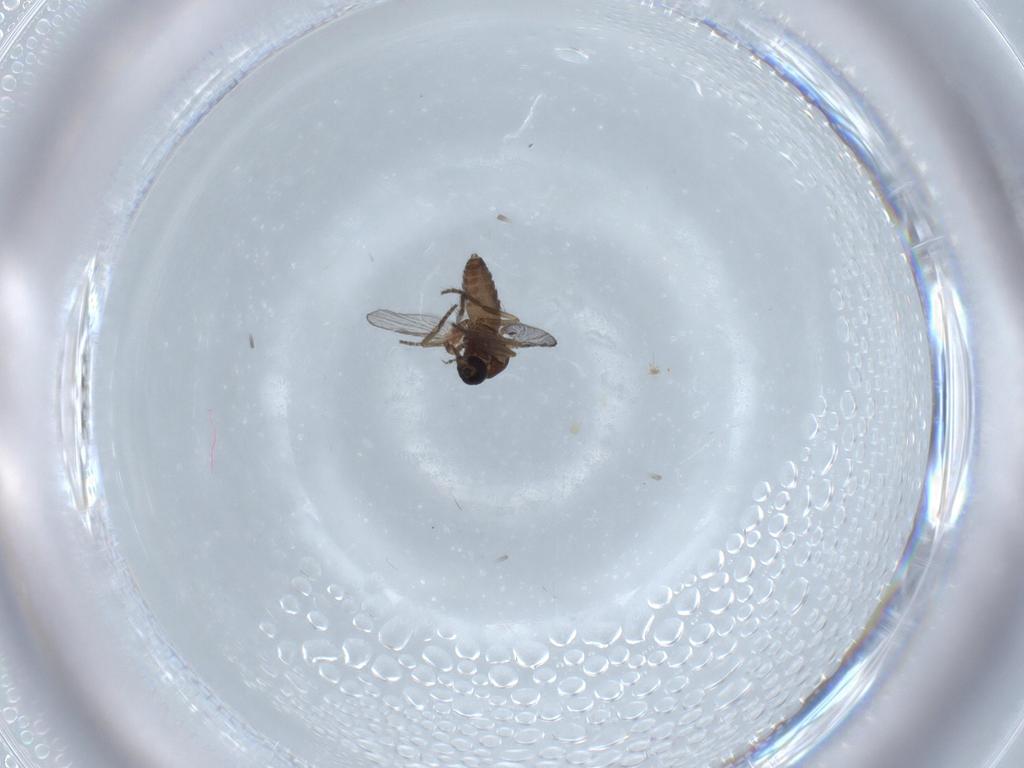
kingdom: Animalia
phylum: Arthropoda
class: Insecta
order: Diptera
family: Ceratopogonidae
